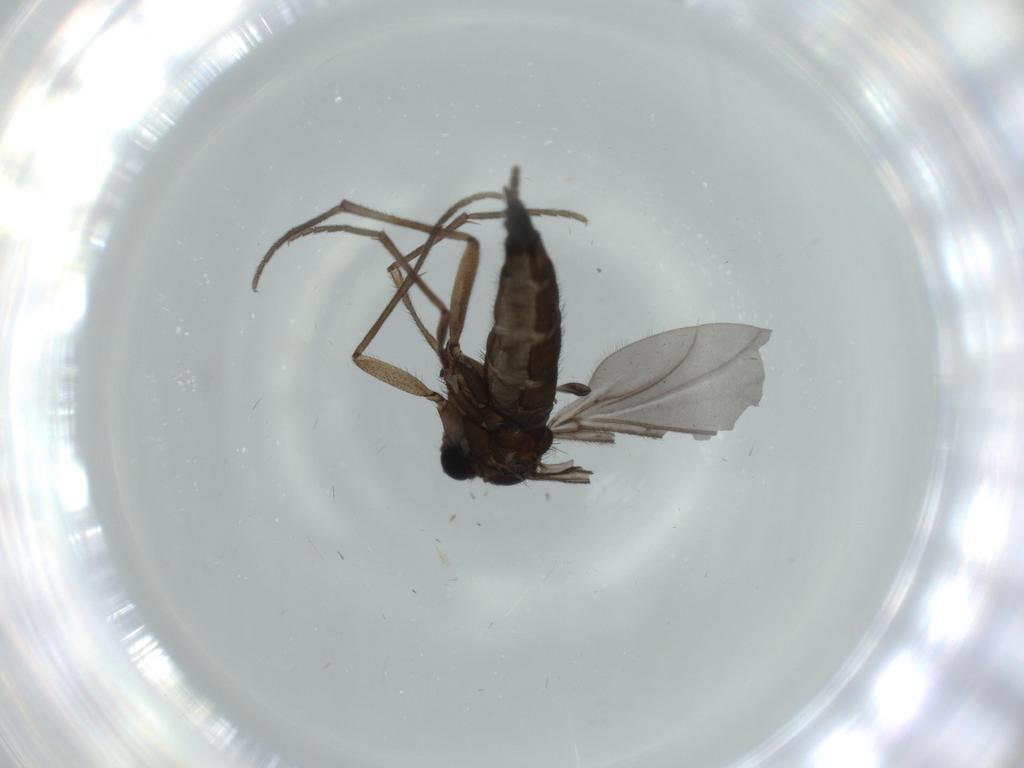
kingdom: Animalia
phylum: Arthropoda
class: Insecta
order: Diptera
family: Sciaridae
